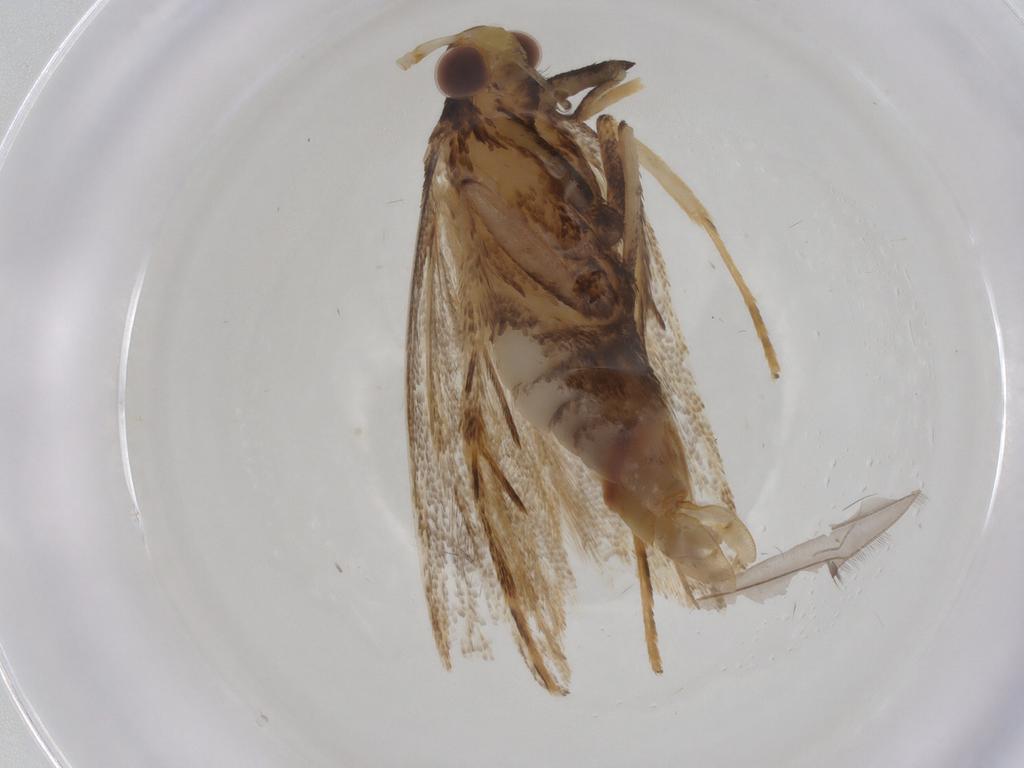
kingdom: Animalia
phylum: Arthropoda
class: Insecta
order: Lepidoptera
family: Lecithoceridae
